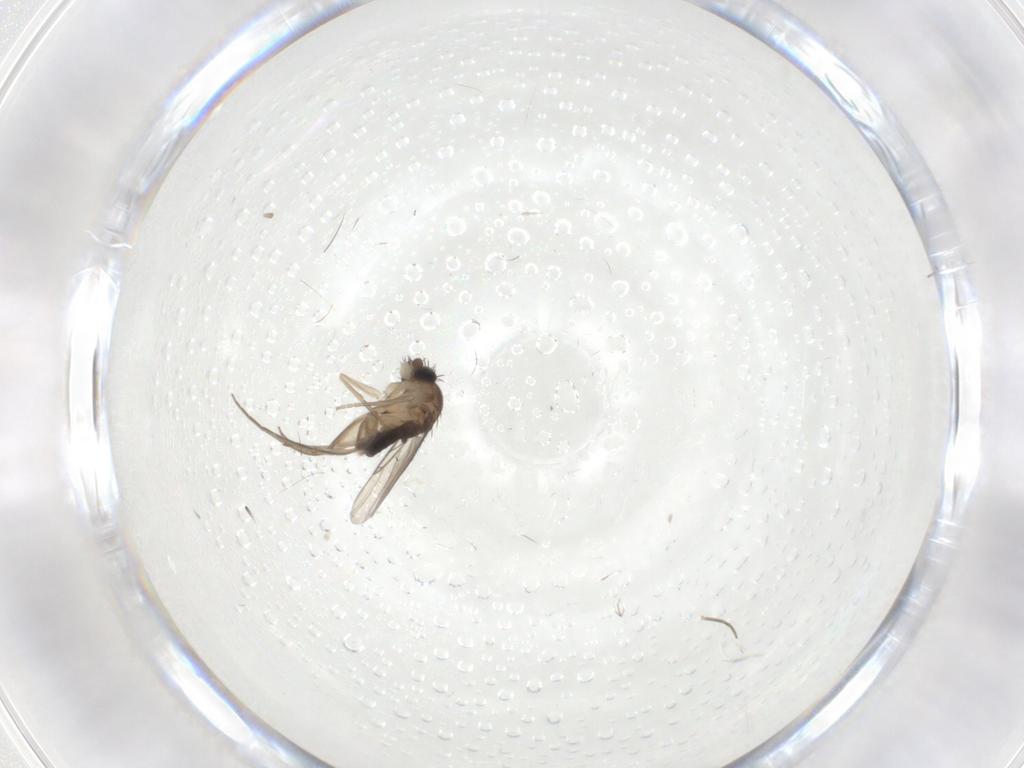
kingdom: Animalia
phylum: Arthropoda
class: Insecta
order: Diptera
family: Phoridae
